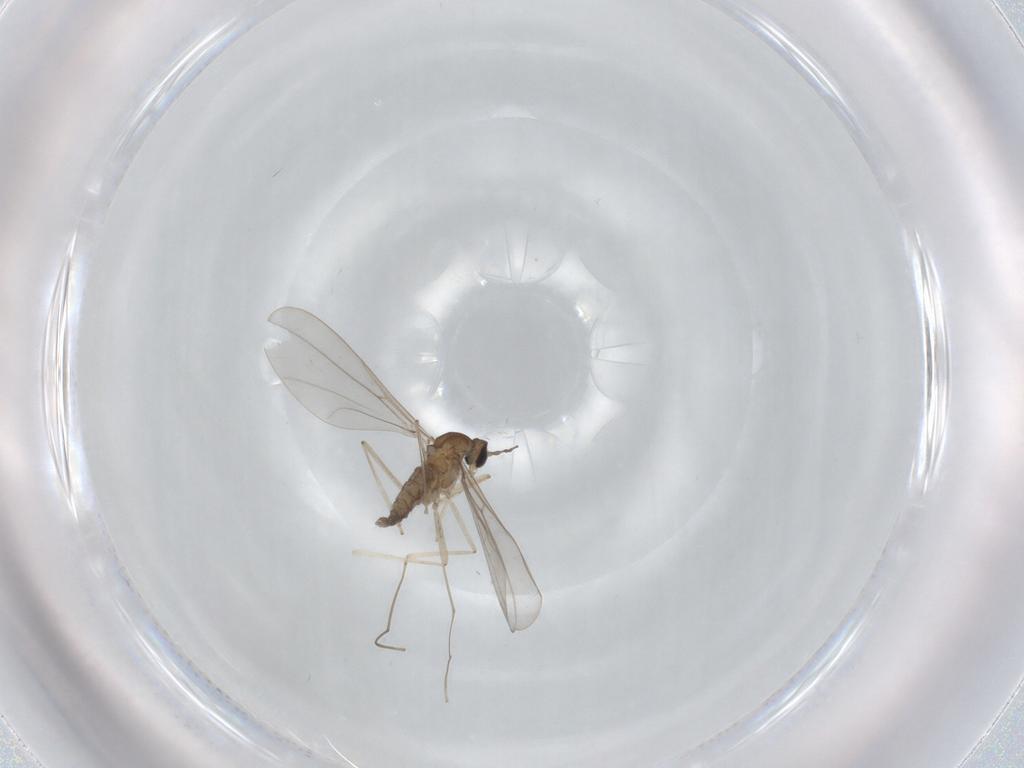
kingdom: Animalia
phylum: Arthropoda
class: Insecta
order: Diptera
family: Cecidomyiidae
